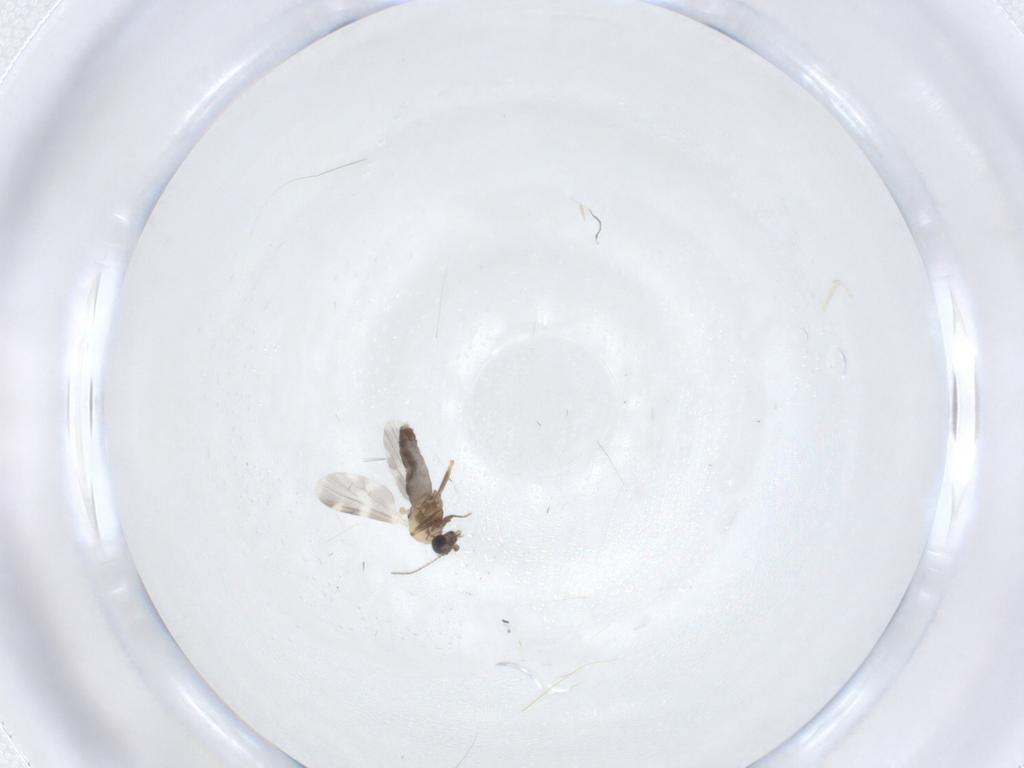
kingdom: Animalia
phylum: Arthropoda
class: Insecta
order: Diptera
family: Ceratopogonidae
